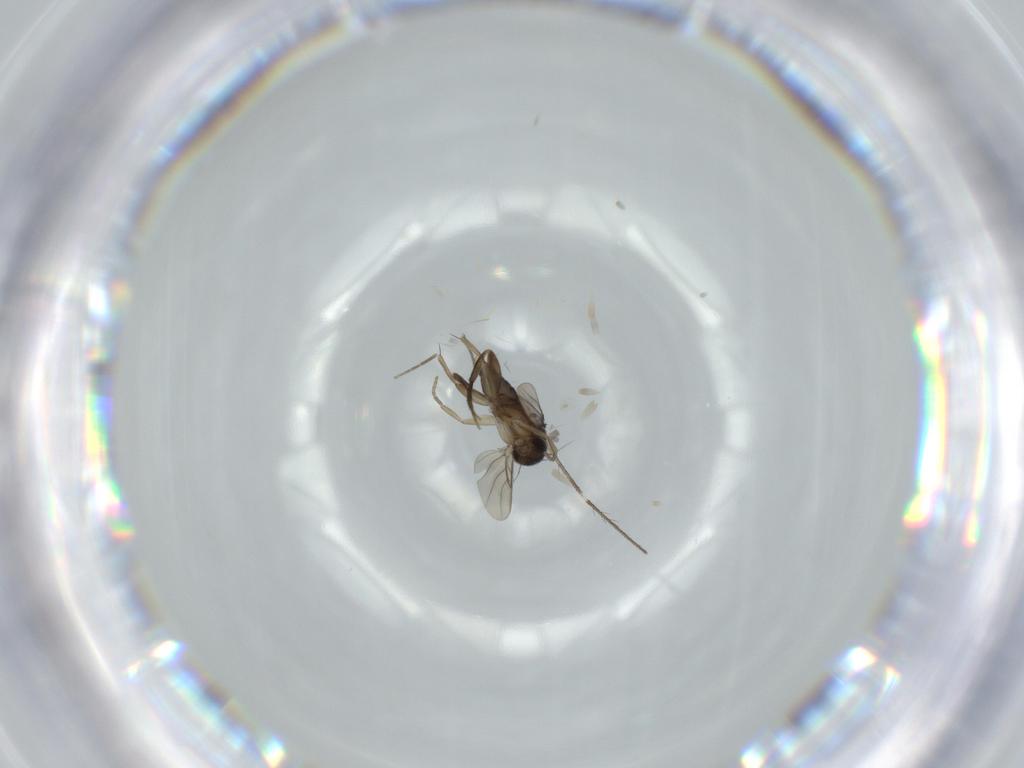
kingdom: Animalia
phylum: Arthropoda
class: Insecta
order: Diptera
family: Phoridae
